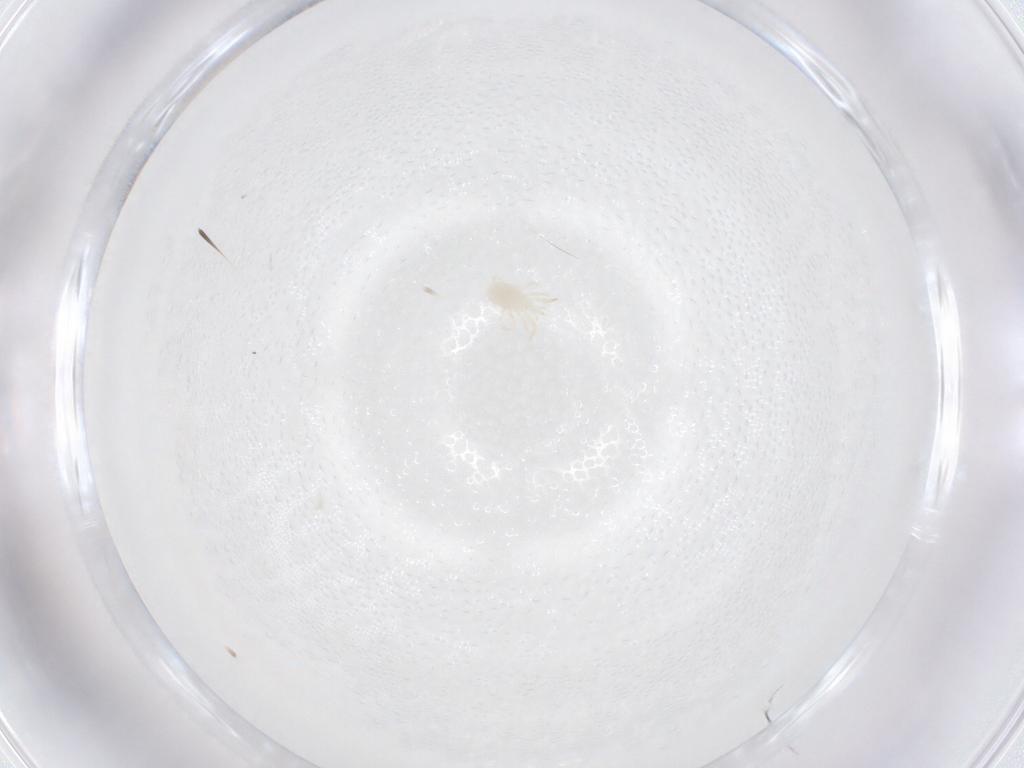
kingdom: Animalia
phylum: Arthropoda
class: Arachnida
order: Mesostigmata
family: Phytoseiidae
